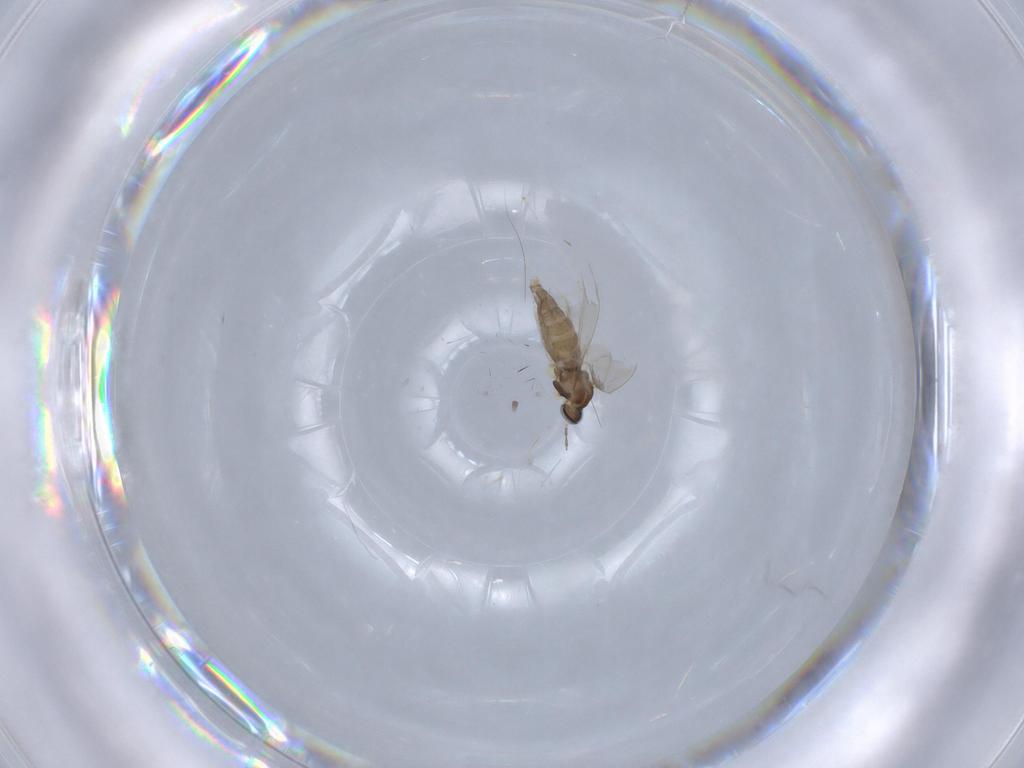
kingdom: Animalia
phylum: Arthropoda
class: Insecta
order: Diptera
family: Cecidomyiidae
